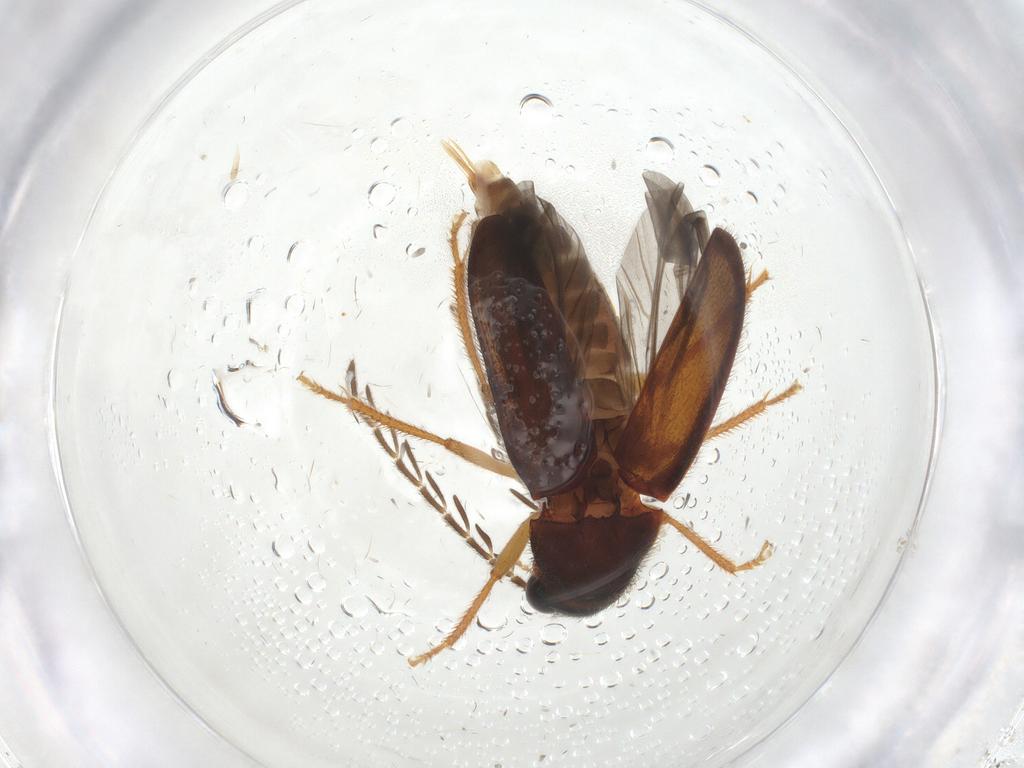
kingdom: Animalia
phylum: Arthropoda
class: Insecta
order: Coleoptera
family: Ptilodactylidae
